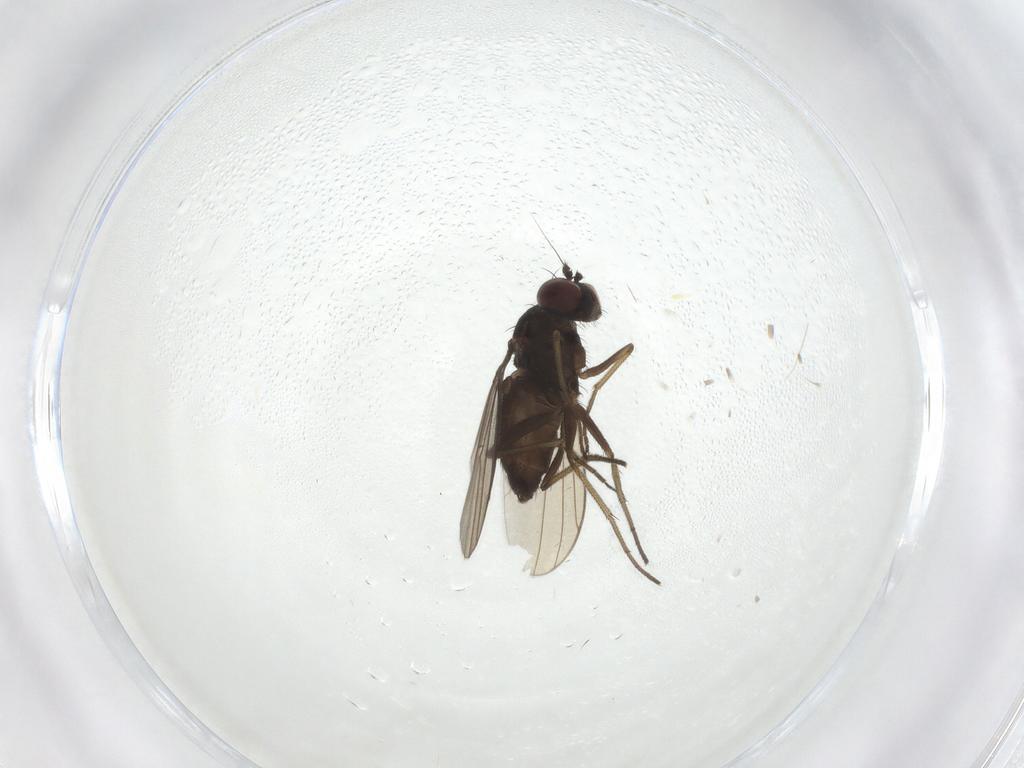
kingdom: Animalia
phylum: Arthropoda
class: Insecta
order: Diptera
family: Dolichopodidae
